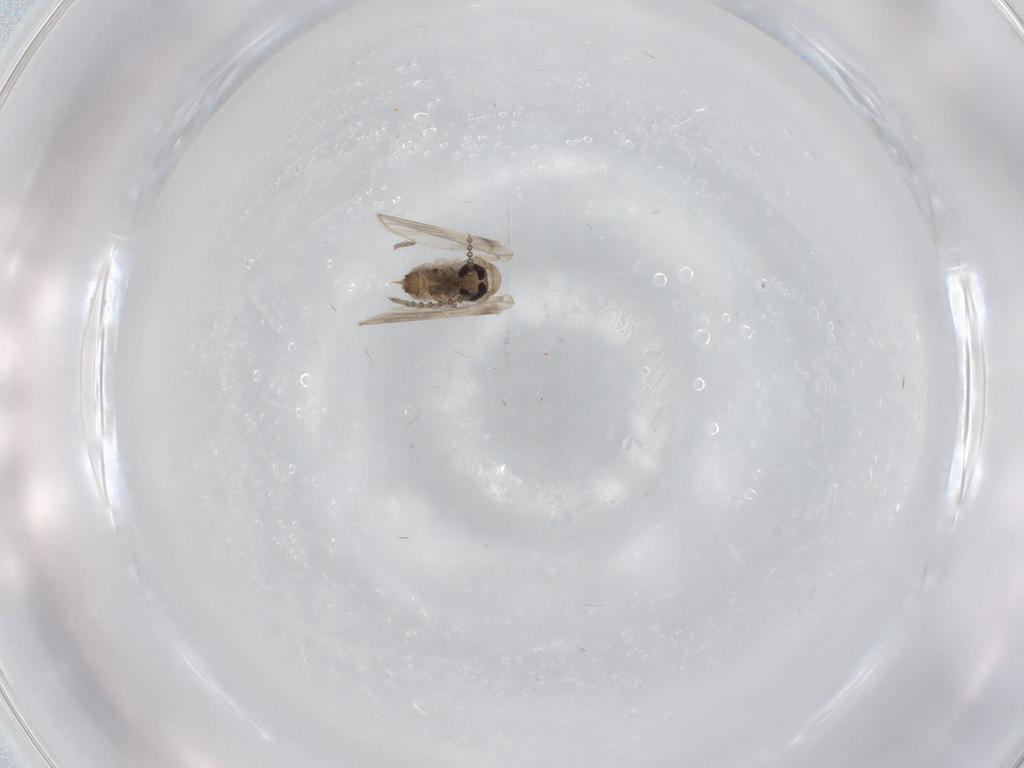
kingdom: Animalia
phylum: Arthropoda
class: Insecta
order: Diptera
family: Psychodidae
